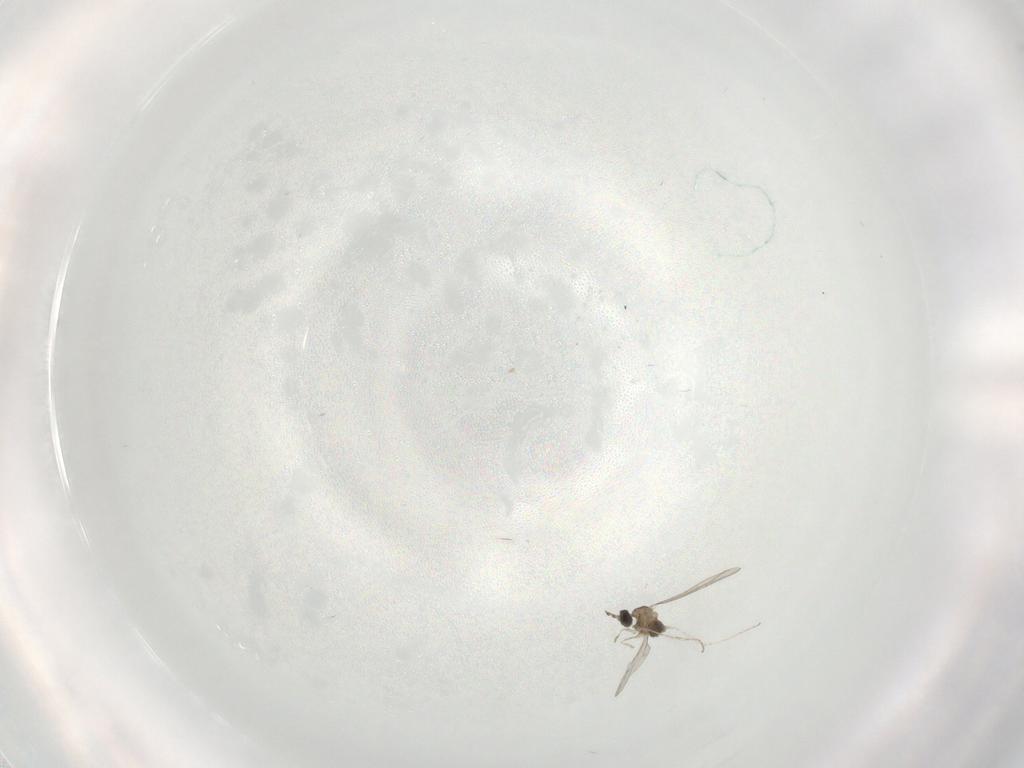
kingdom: Animalia
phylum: Arthropoda
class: Insecta
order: Diptera
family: Cecidomyiidae
